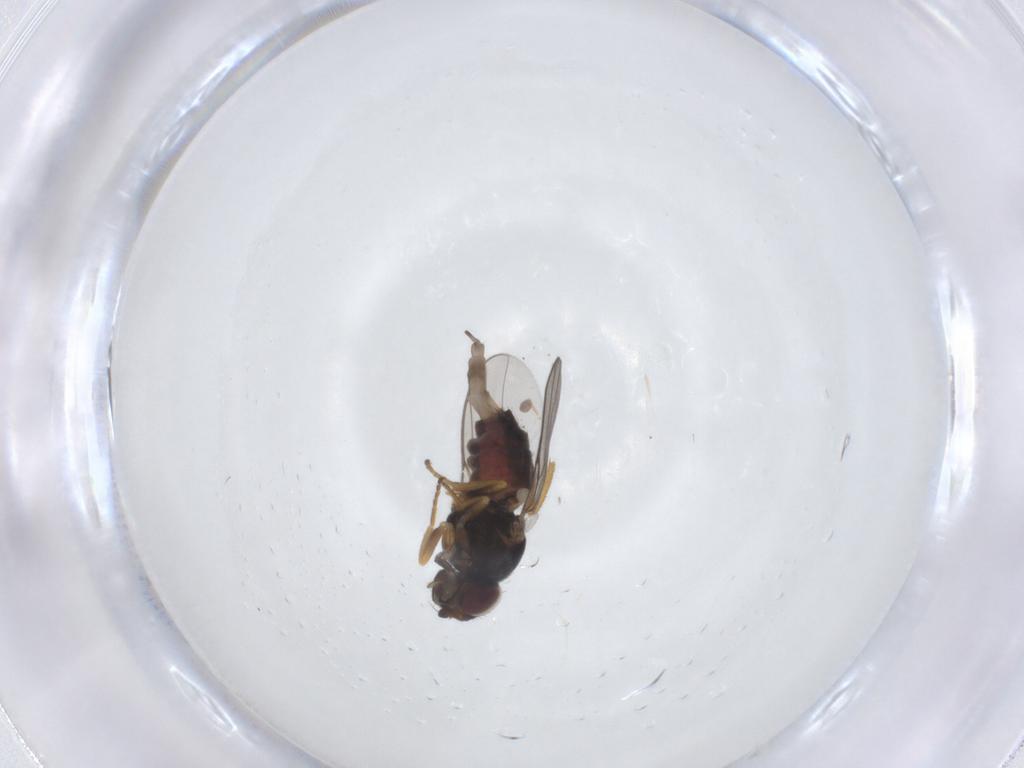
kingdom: Animalia
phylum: Arthropoda
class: Insecta
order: Diptera
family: Chloropidae
